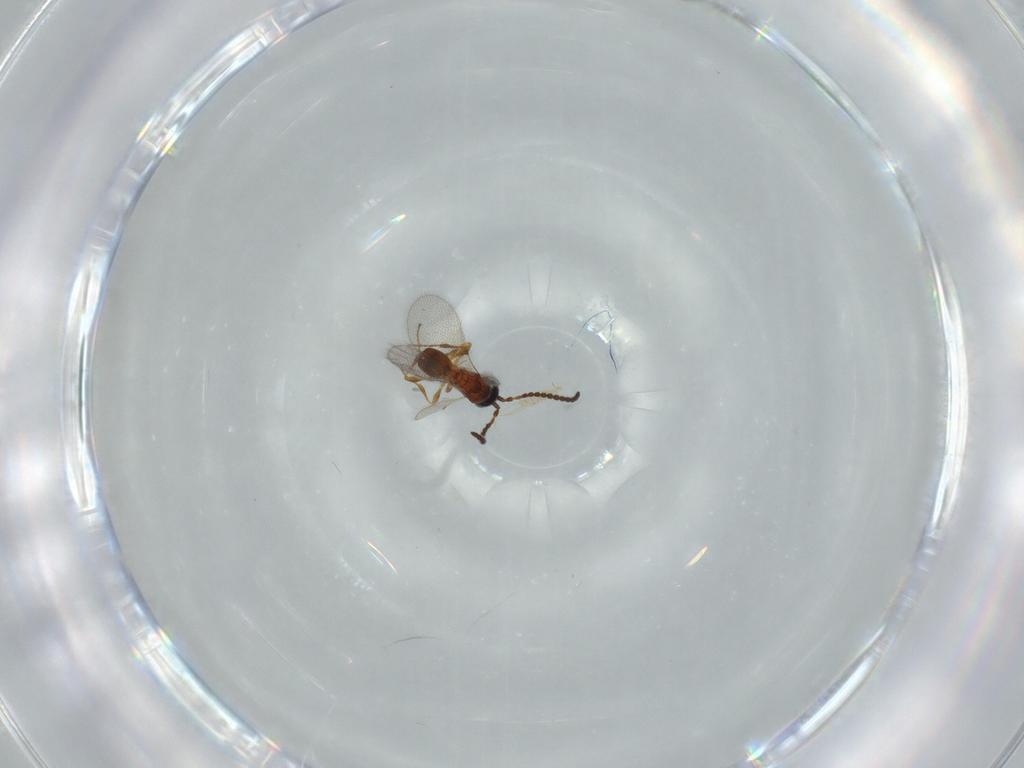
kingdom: Animalia
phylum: Arthropoda
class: Insecta
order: Hymenoptera
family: Diapriidae
